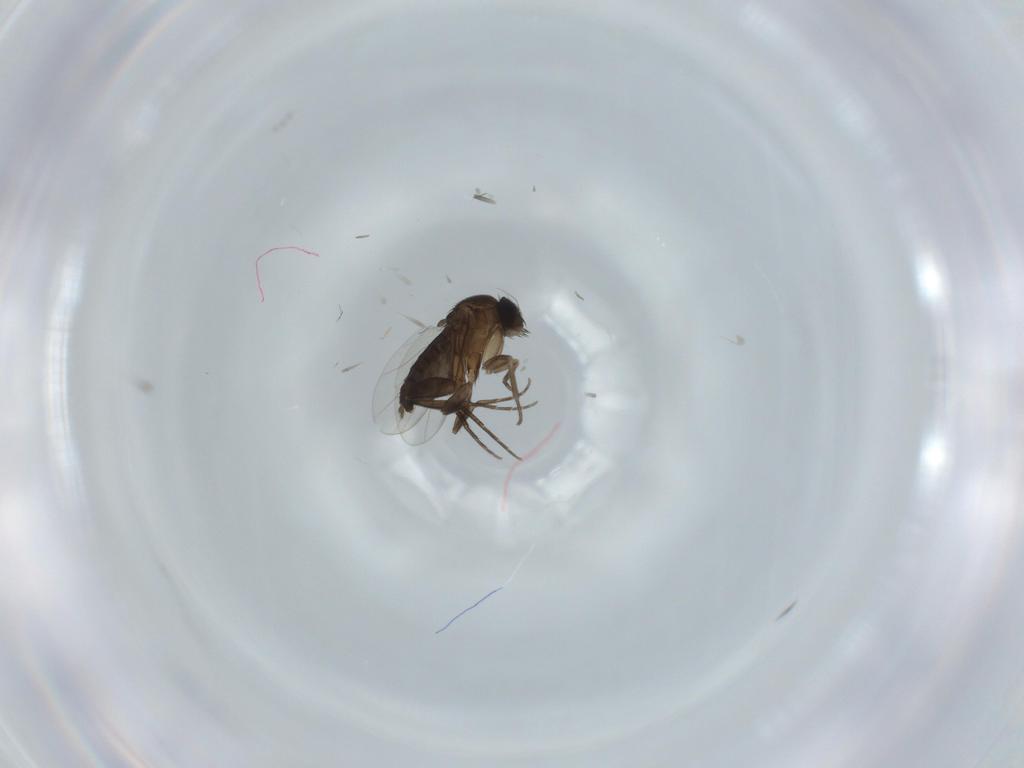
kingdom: Animalia
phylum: Arthropoda
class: Insecta
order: Diptera
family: Phoridae
